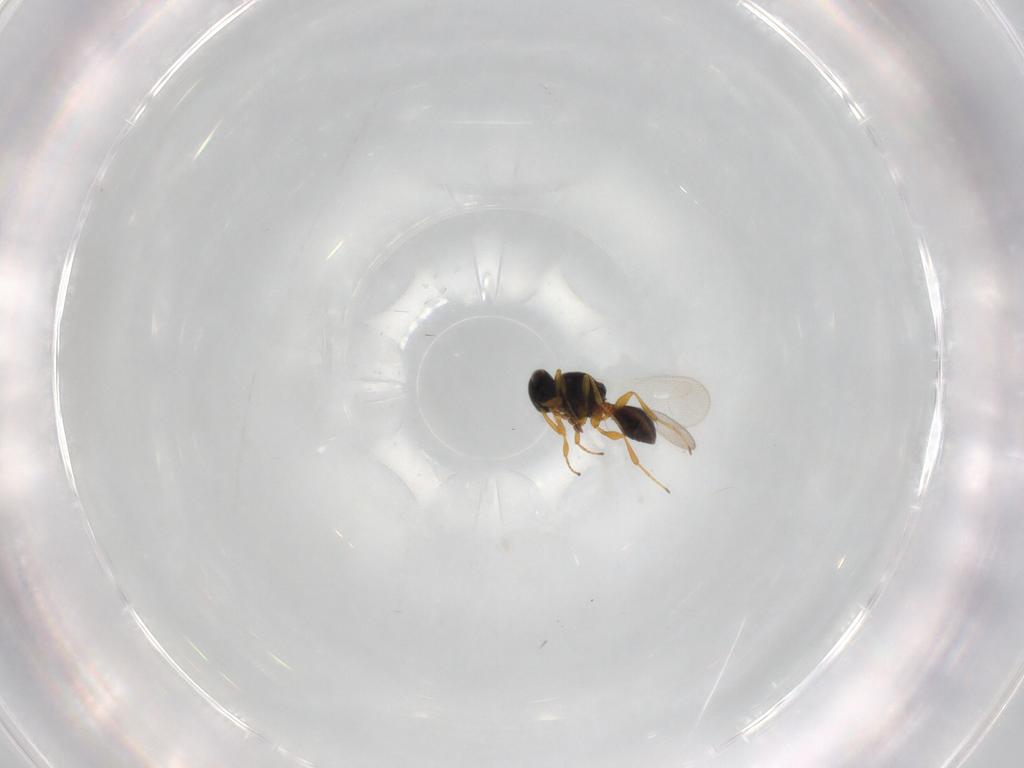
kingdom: Animalia
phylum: Arthropoda
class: Insecta
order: Hymenoptera
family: Platygastridae
